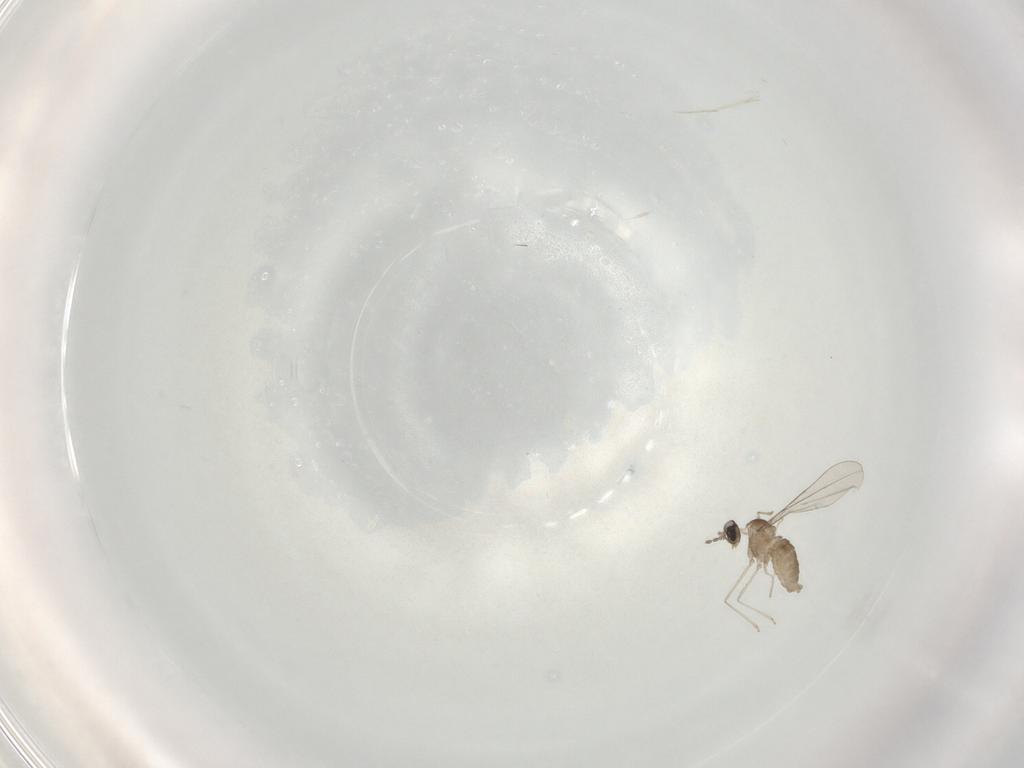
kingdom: Animalia
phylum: Arthropoda
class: Insecta
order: Diptera
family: Cecidomyiidae
